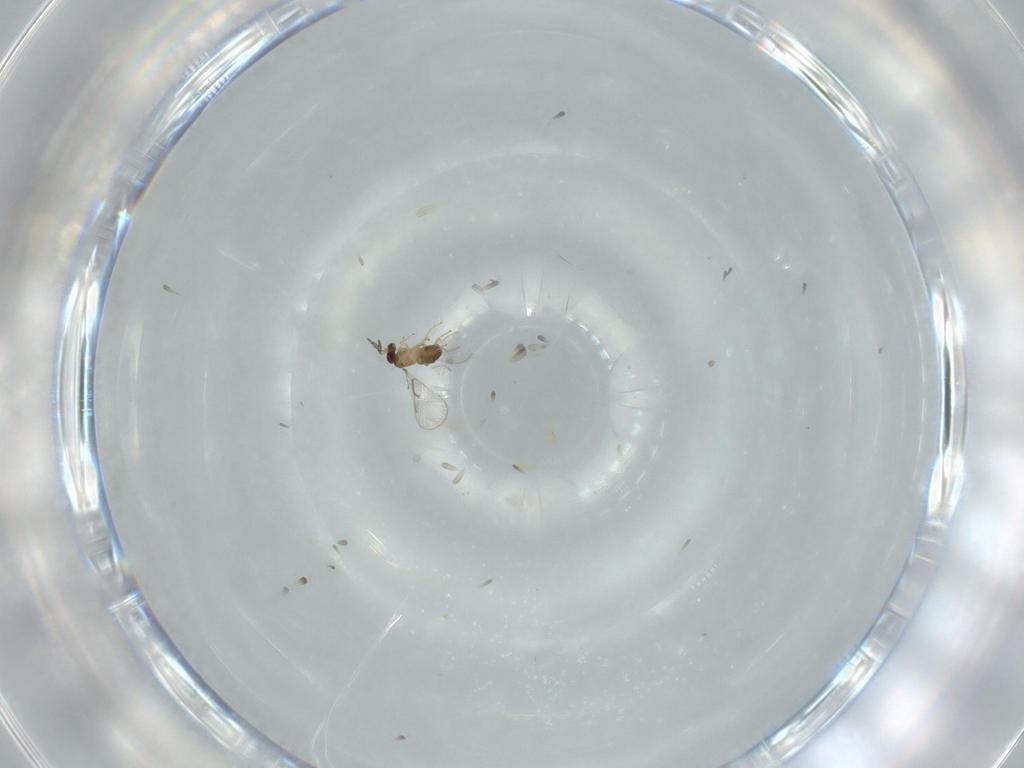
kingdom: Animalia
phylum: Arthropoda
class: Insecta
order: Hymenoptera
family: Trichogrammatidae
